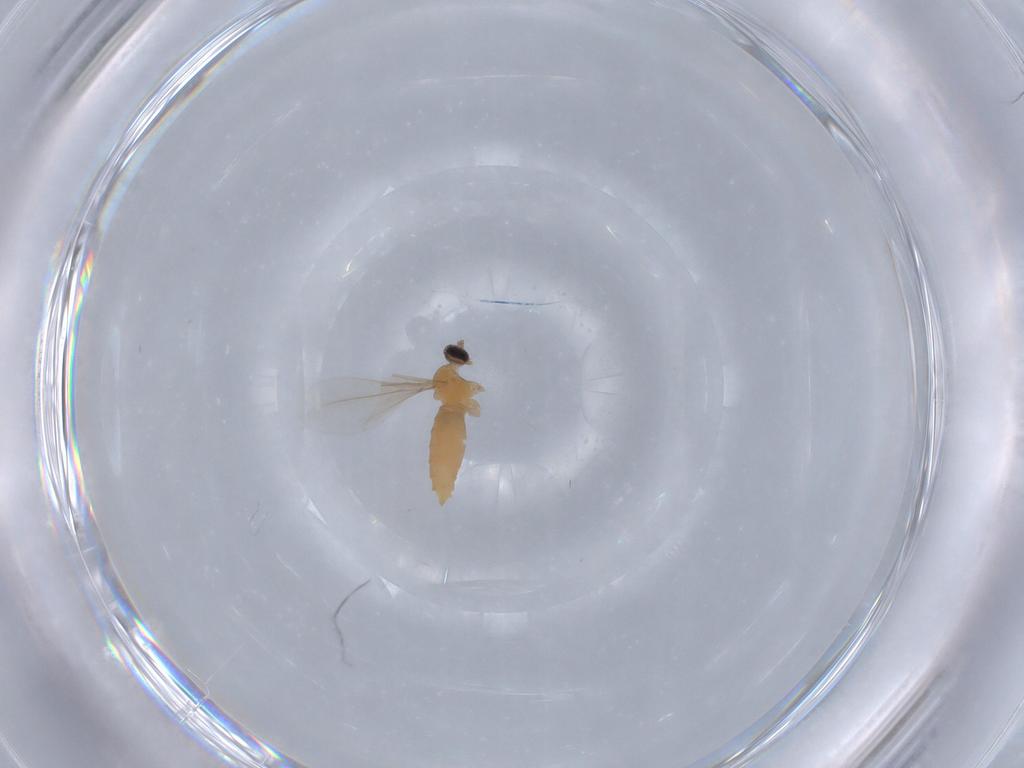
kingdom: Animalia
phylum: Arthropoda
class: Insecta
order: Diptera
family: Cecidomyiidae
